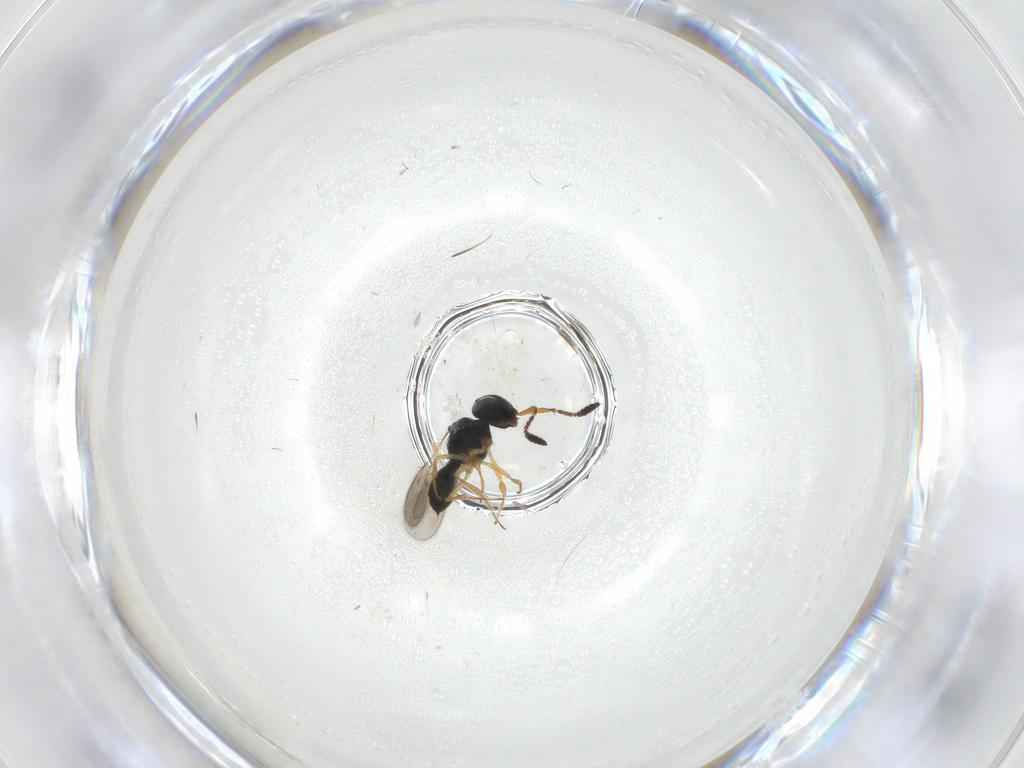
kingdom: Animalia
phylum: Arthropoda
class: Insecta
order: Hymenoptera
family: Scelionidae
